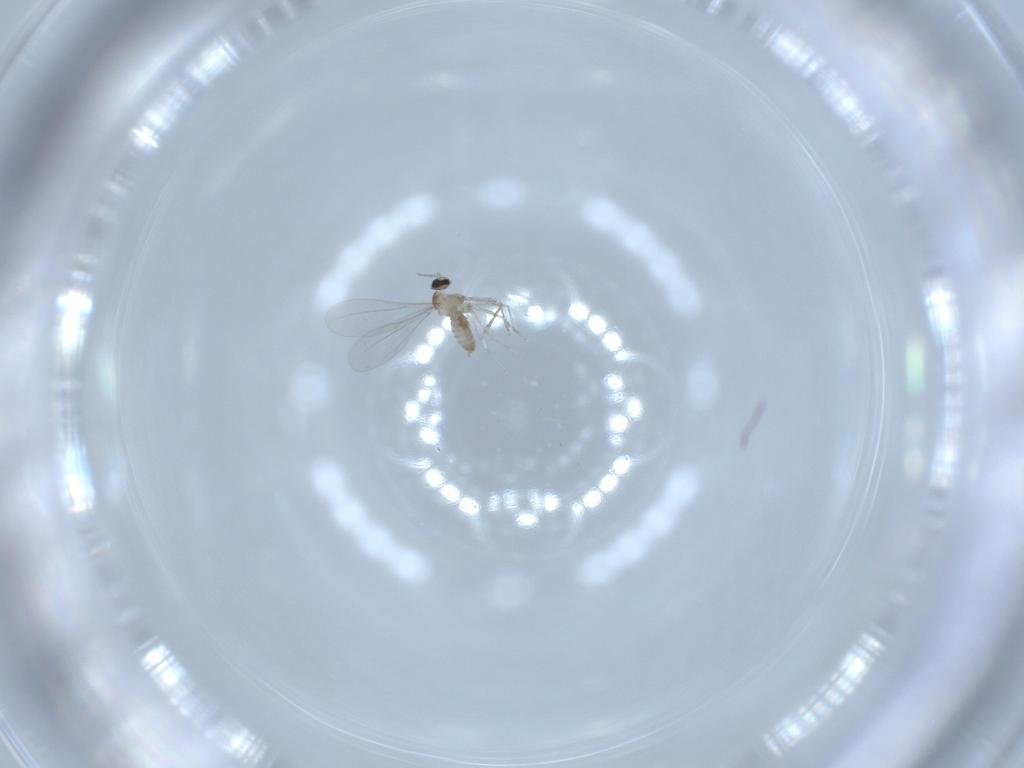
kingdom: Animalia
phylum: Arthropoda
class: Insecta
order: Diptera
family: Cecidomyiidae
